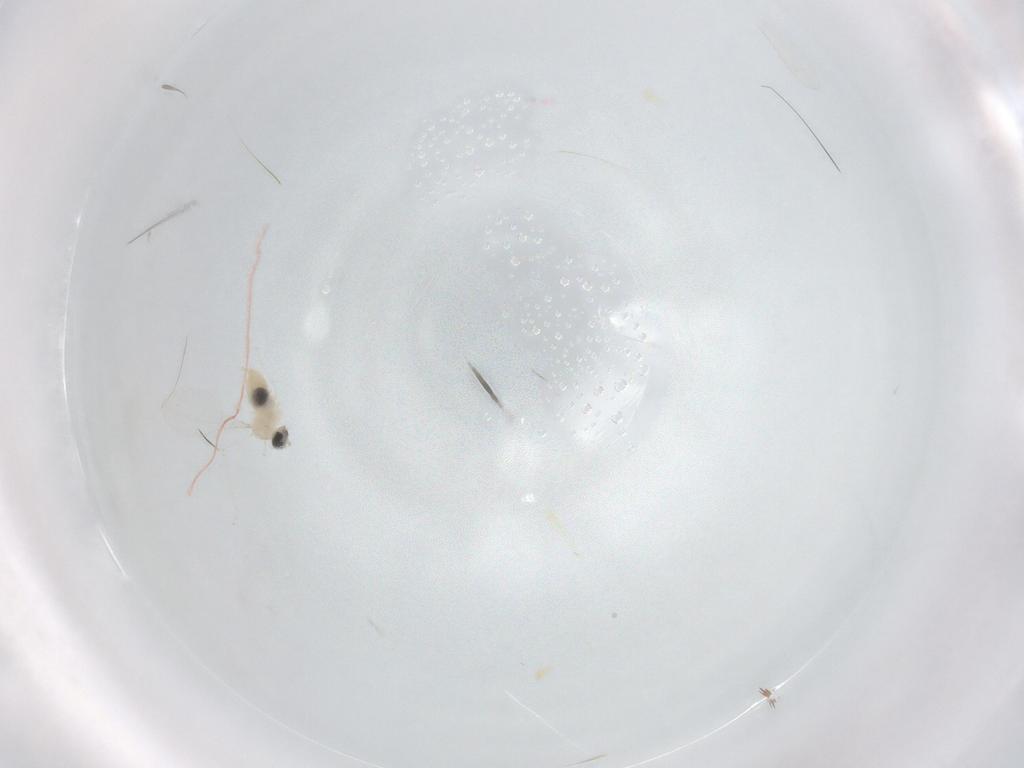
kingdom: Animalia
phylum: Arthropoda
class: Insecta
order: Diptera
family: Cecidomyiidae
